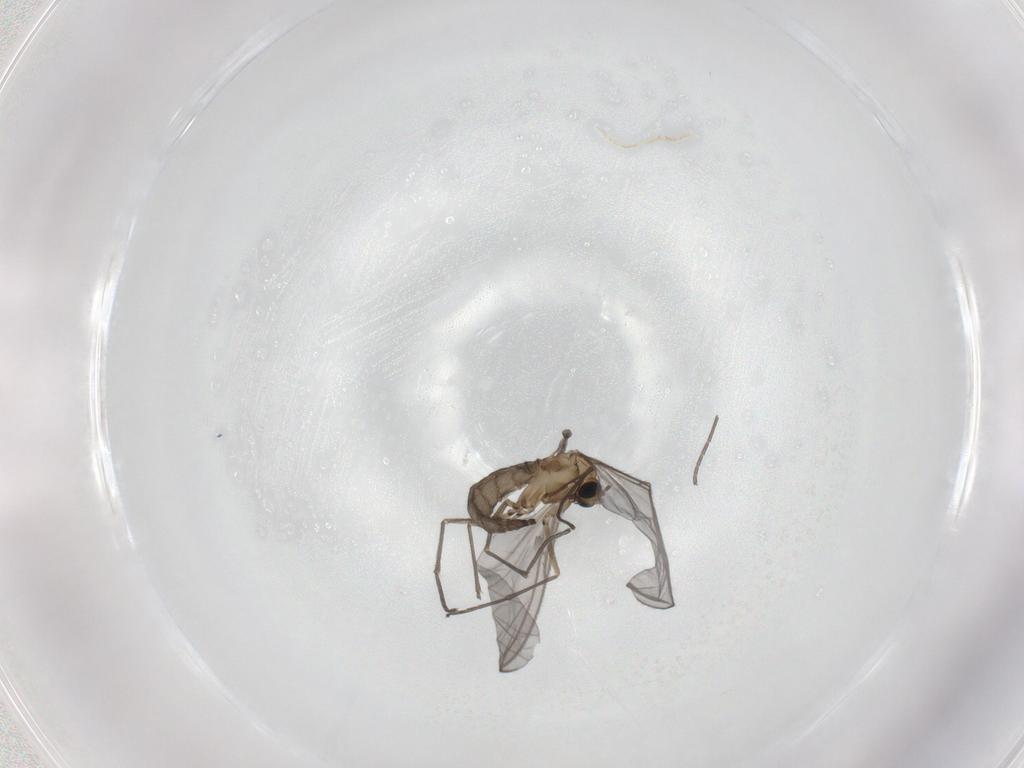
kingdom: Animalia
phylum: Arthropoda
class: Insecta
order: Diptera
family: Sciaridae
